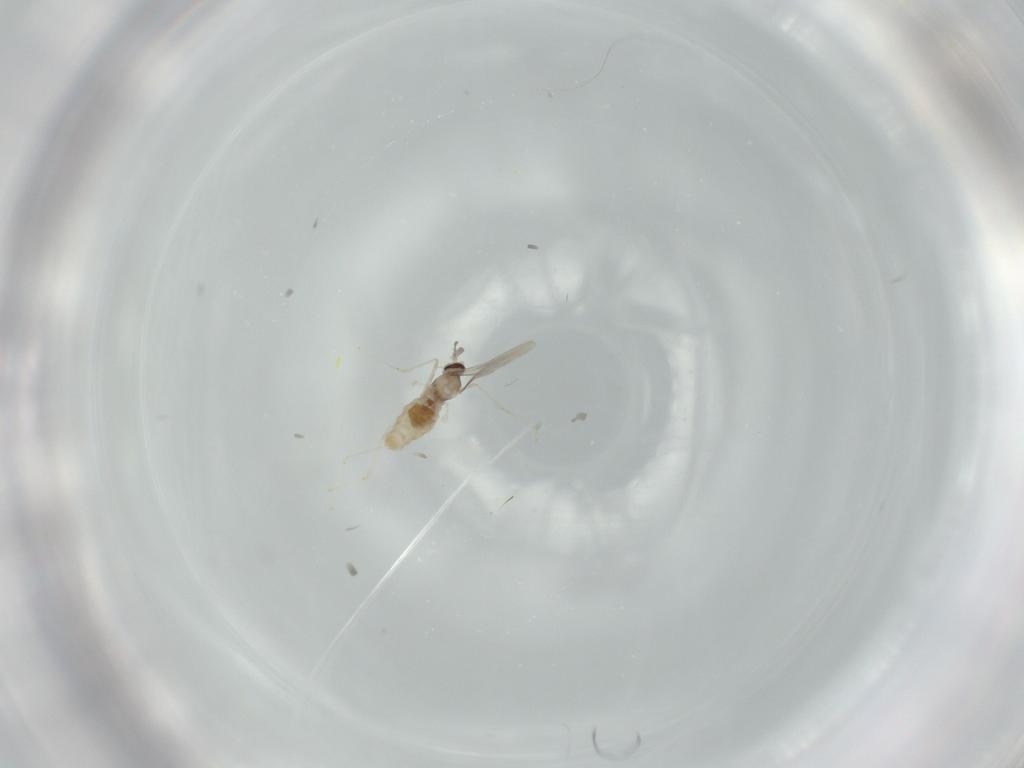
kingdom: Animalia
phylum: Arthropoda
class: Insecta
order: Diptera
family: Cecidomyiidae
